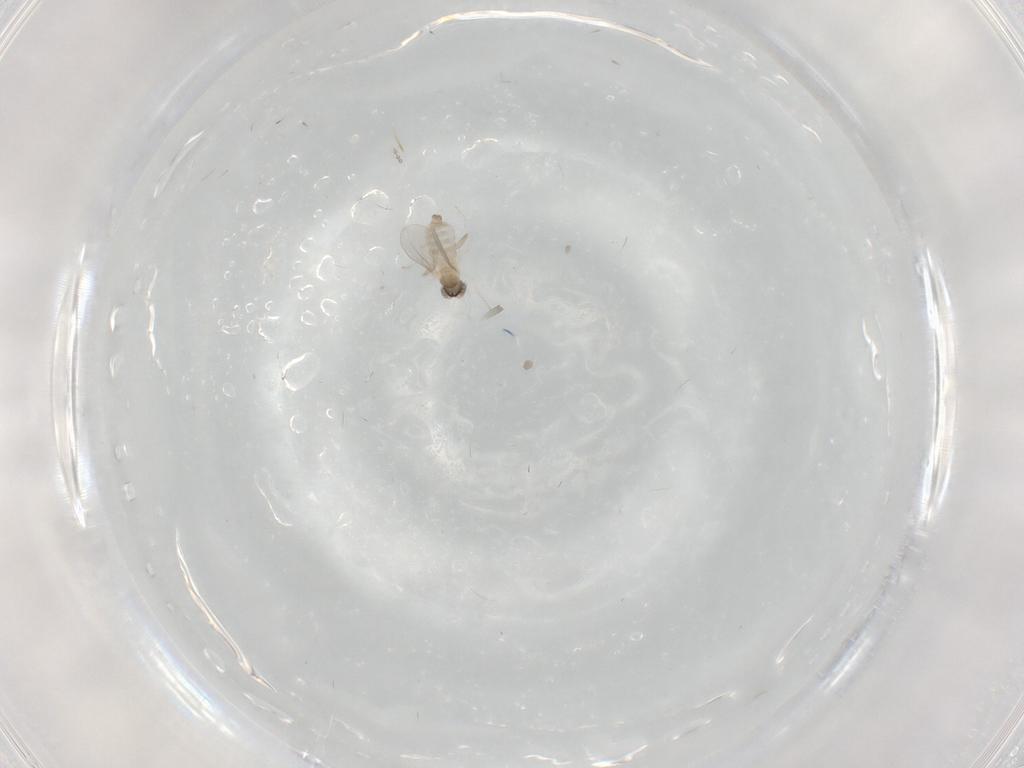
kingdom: Animalia
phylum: Arthropoda
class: Insecta
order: Diptera
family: Cecidomyiidae
